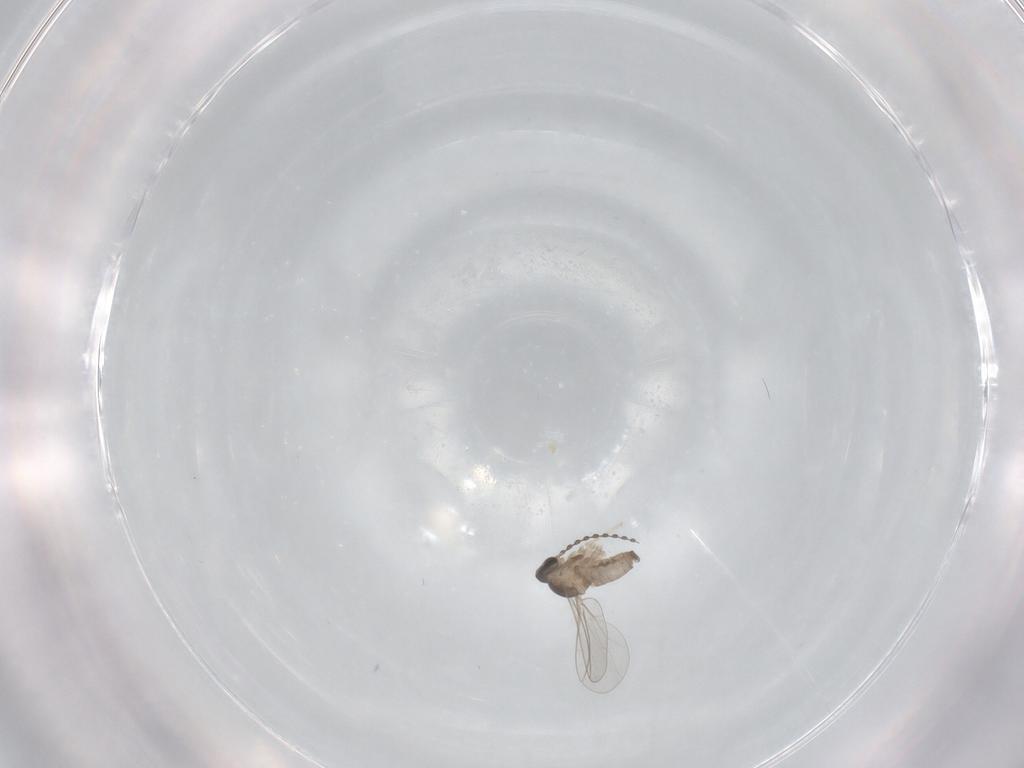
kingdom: Animalia
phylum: Arthropoda
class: Insecta
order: Diptera
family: Cecidomyiidae
